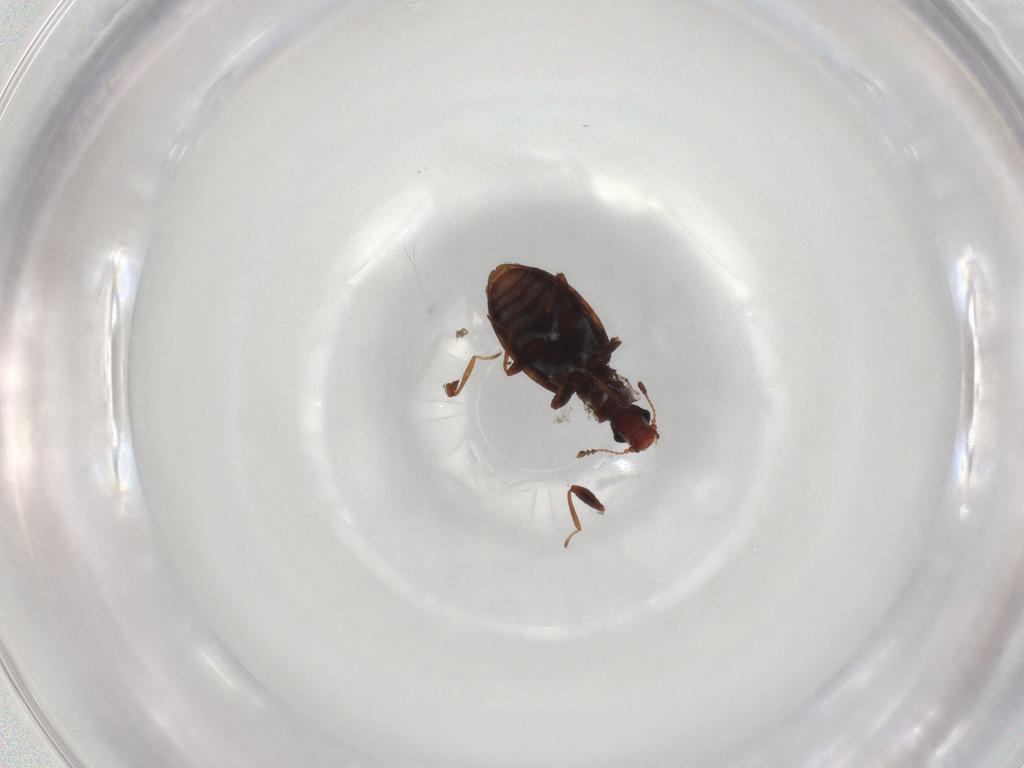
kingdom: Animalia
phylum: Arthropoda
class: Insecta
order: Coleoptera
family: Latridiidae
